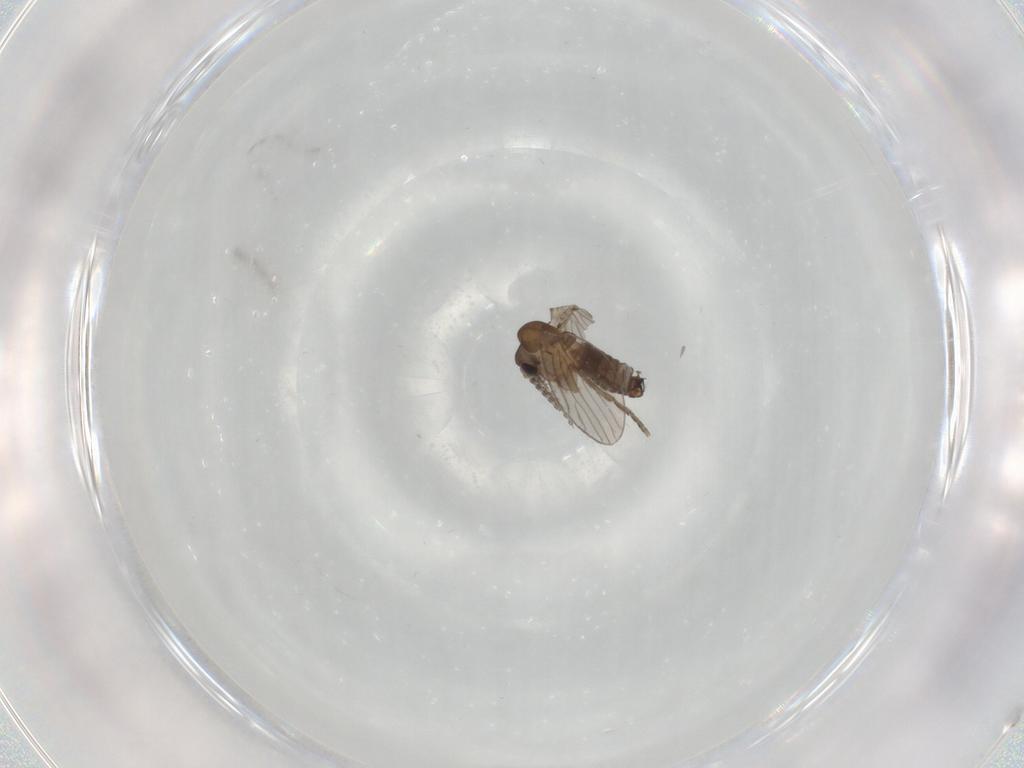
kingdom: Animalia
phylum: Arthropoda
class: Insecta
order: Diptera
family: Psychodidae
